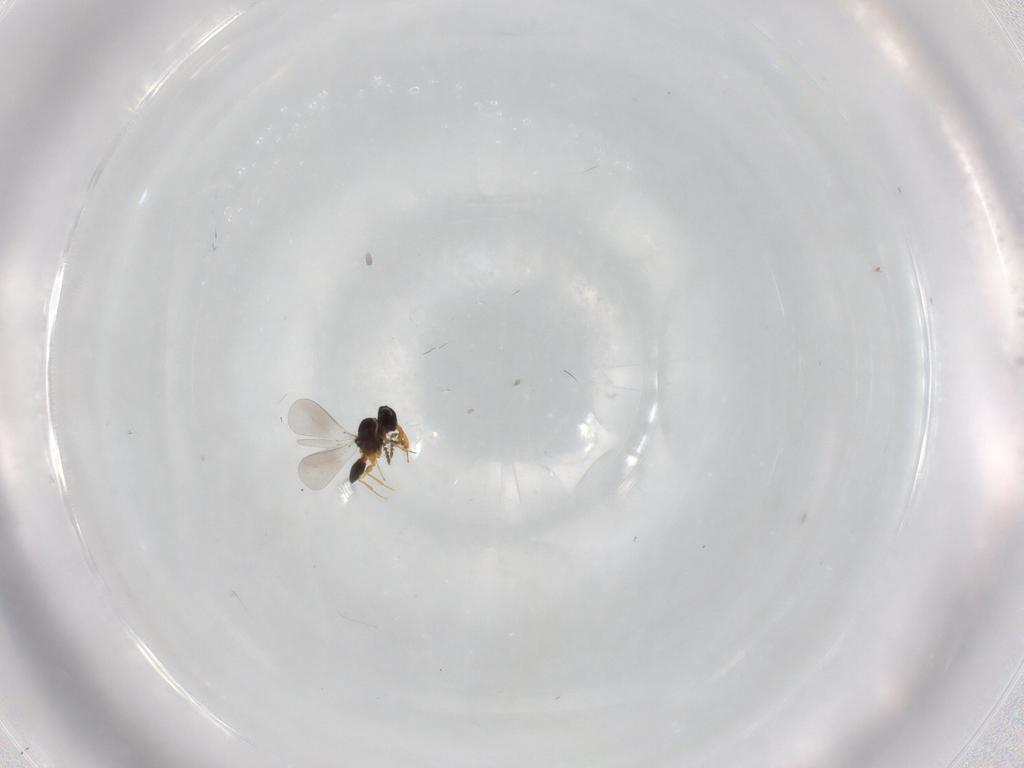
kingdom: Animalia
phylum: Arthropoda
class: Insecta
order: Hymenoptera
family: Platygastridae
